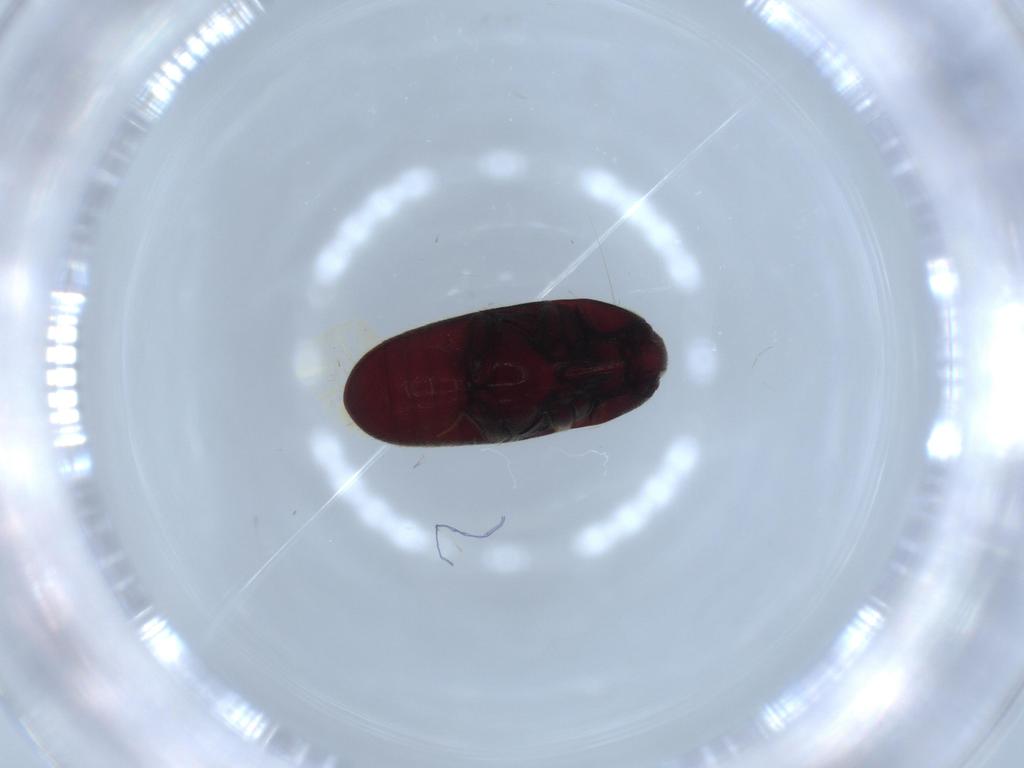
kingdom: Animalia
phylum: Arthropoda
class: Insecta
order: Coleoptera
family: Throscidae
